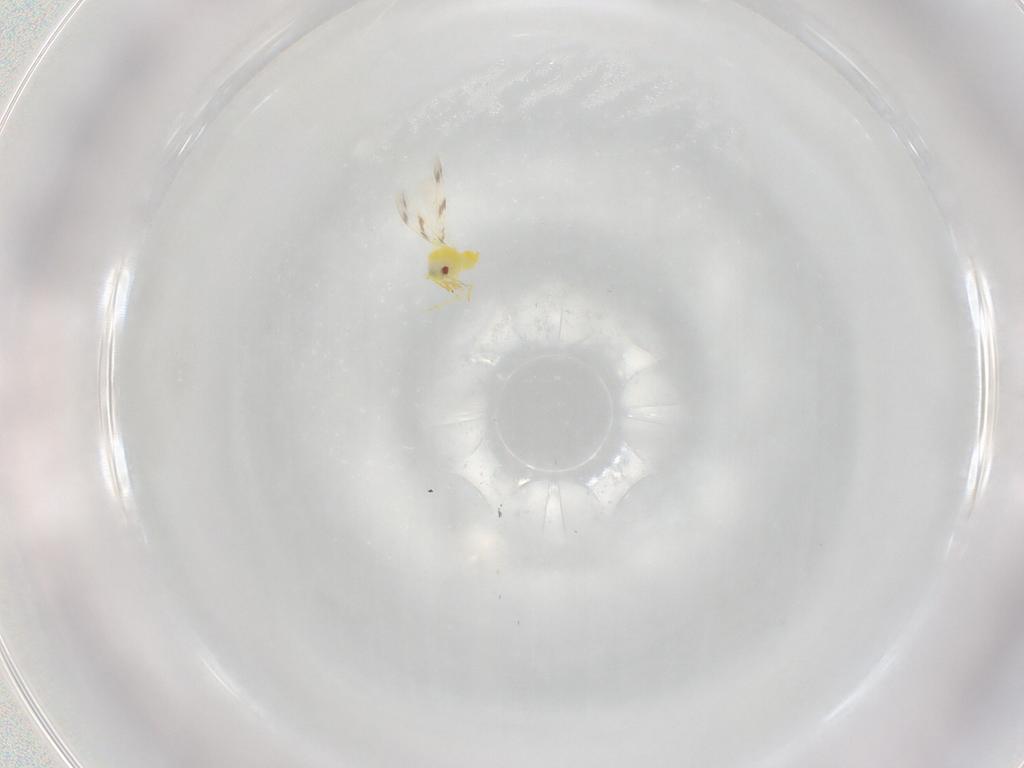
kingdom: Animalia
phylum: Arthropoda
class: Insecta
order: Hemiptera
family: Aleyrodidae
